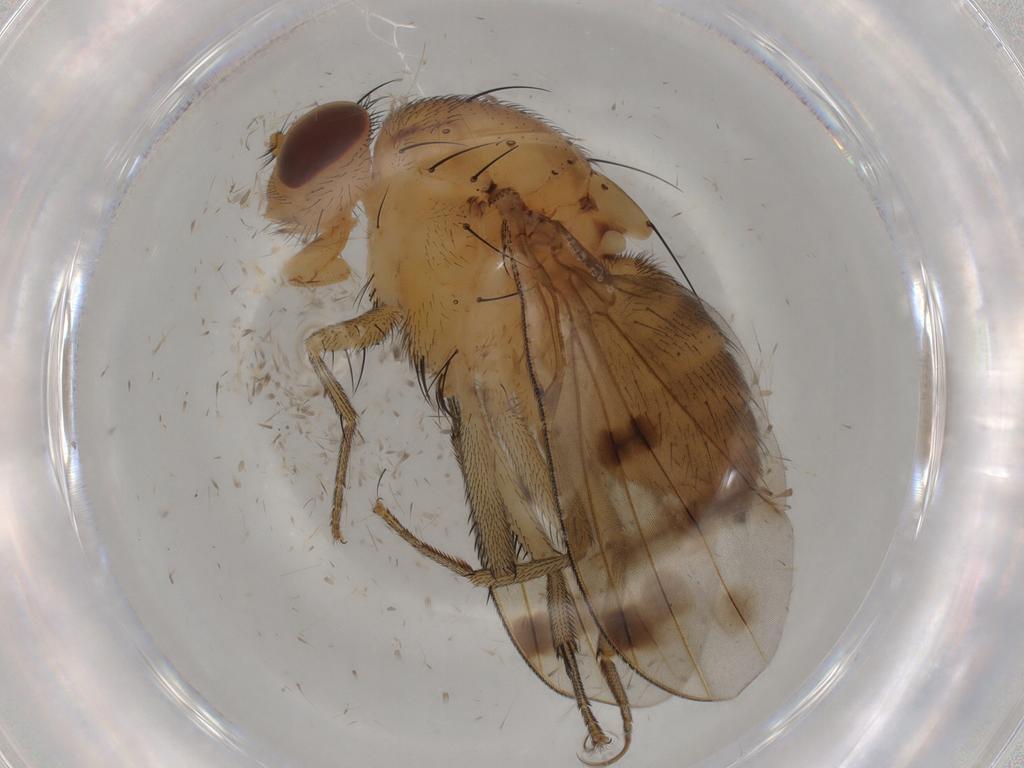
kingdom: Animalia
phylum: Arthropoda
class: Insecta
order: Diptera
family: Chironomidae
